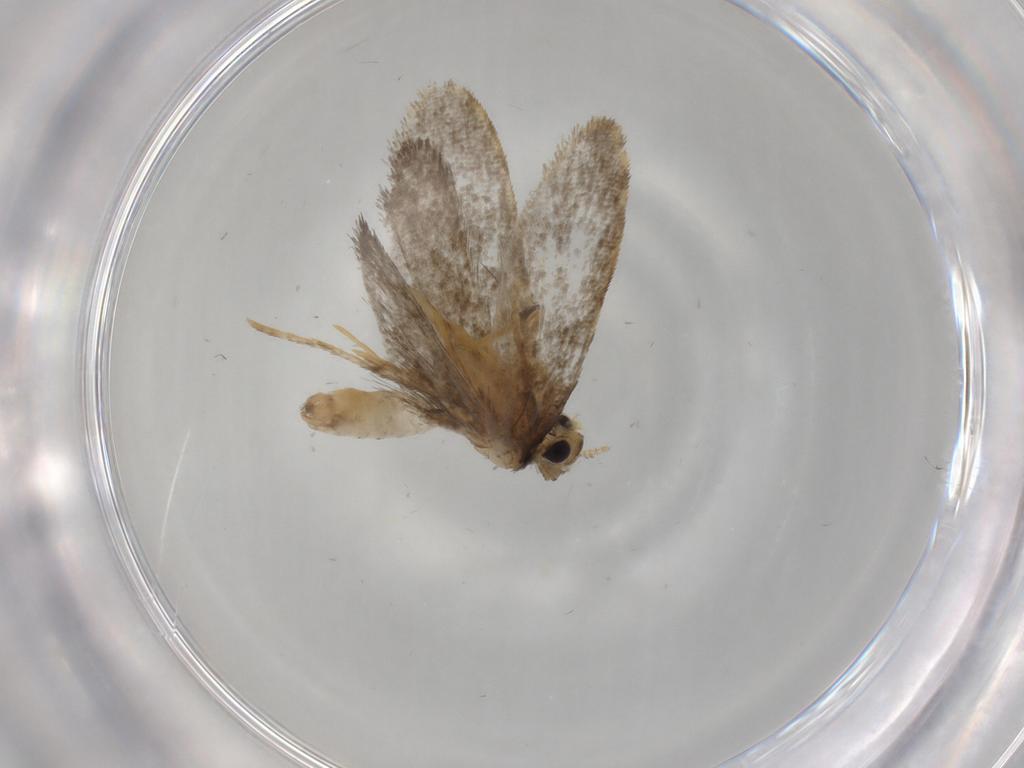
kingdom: Animalia
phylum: Arthropoda
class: Insecta
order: Lepidoptera
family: Psychidae
